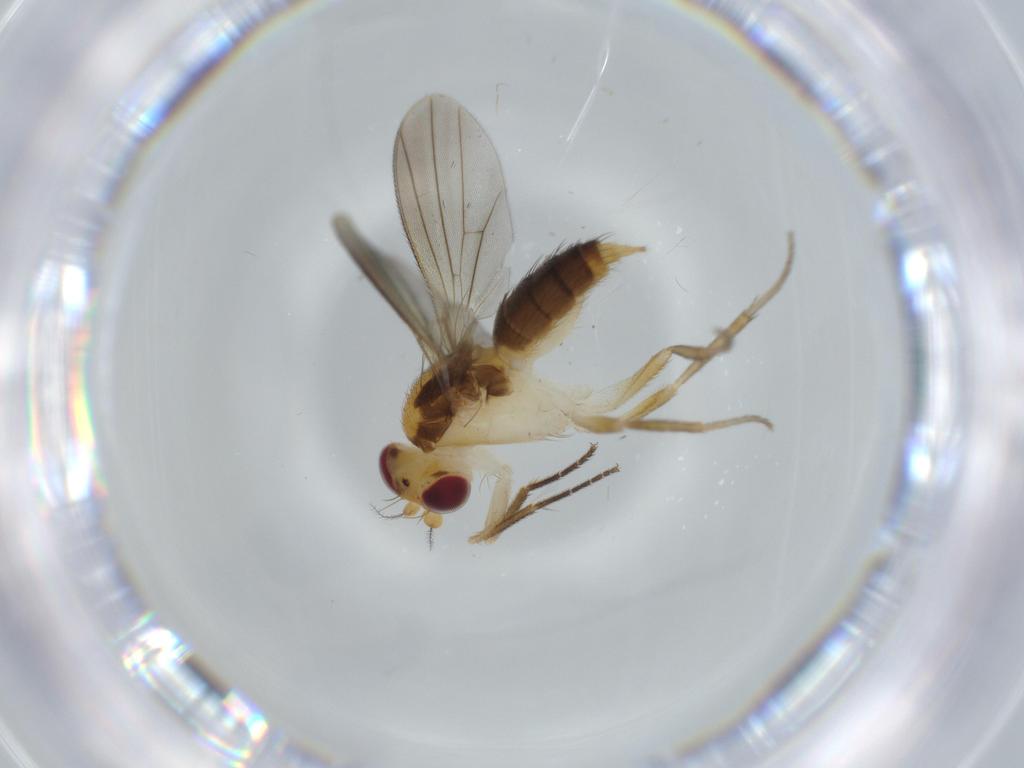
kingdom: Animalia
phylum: Arthropoda
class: Insecta
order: Diptera
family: Agromyzidae
